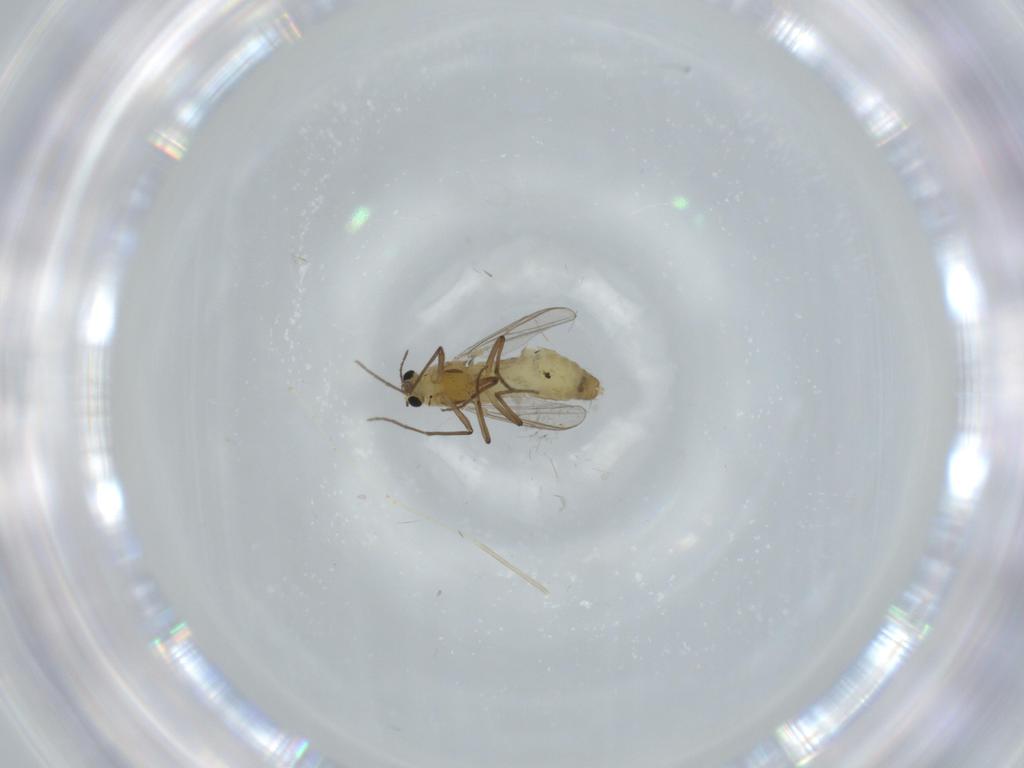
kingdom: Animalia
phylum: Arthropoda
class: Insecta
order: Diptera
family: Chironomidae
